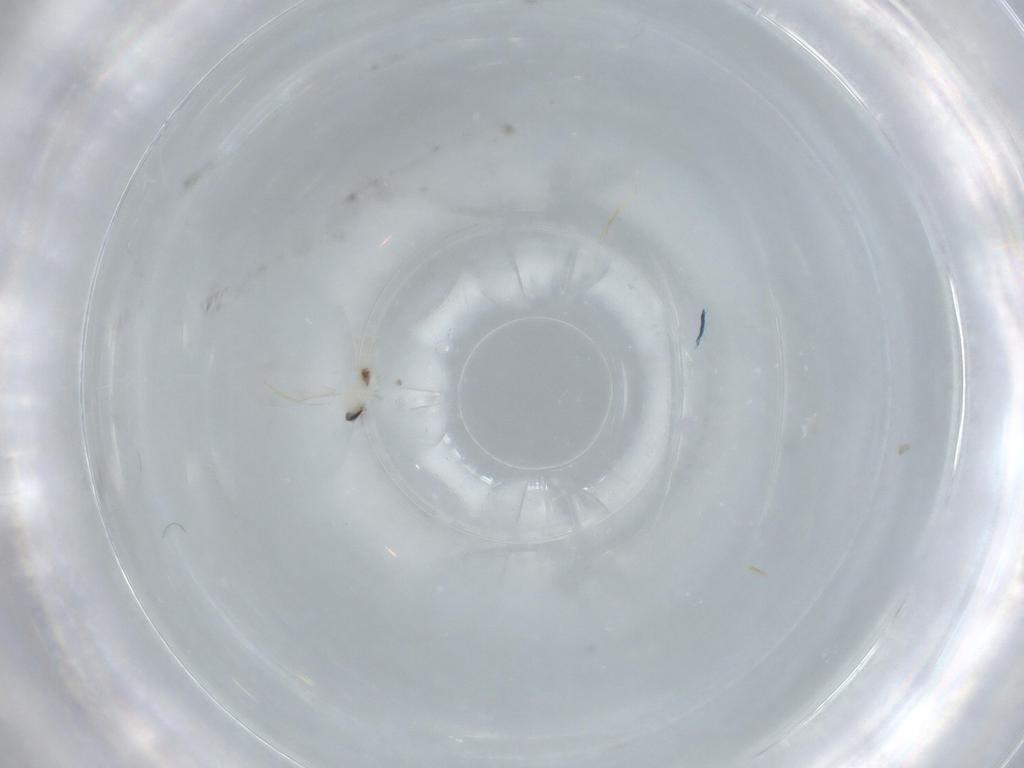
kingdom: Animalia
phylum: Arthropoda
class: Insecta
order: Diptera
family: Cecidomyiidae
